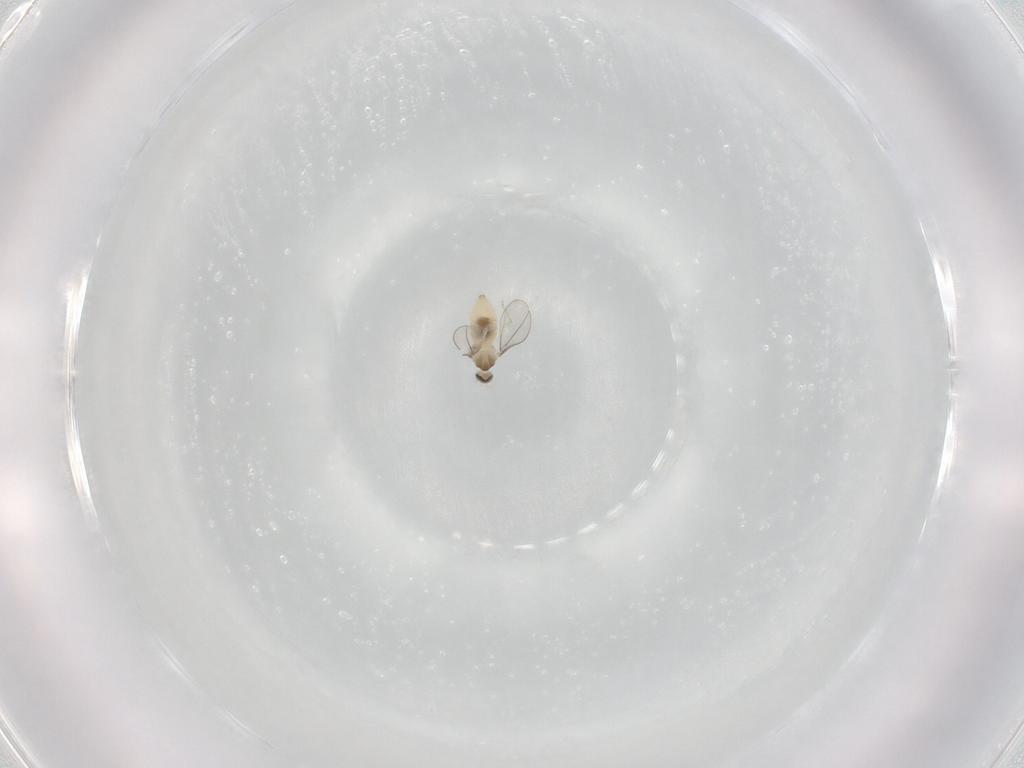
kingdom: Animalia
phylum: Arthropoda
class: Insecta
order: Diptera
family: Cecidomyiidae
